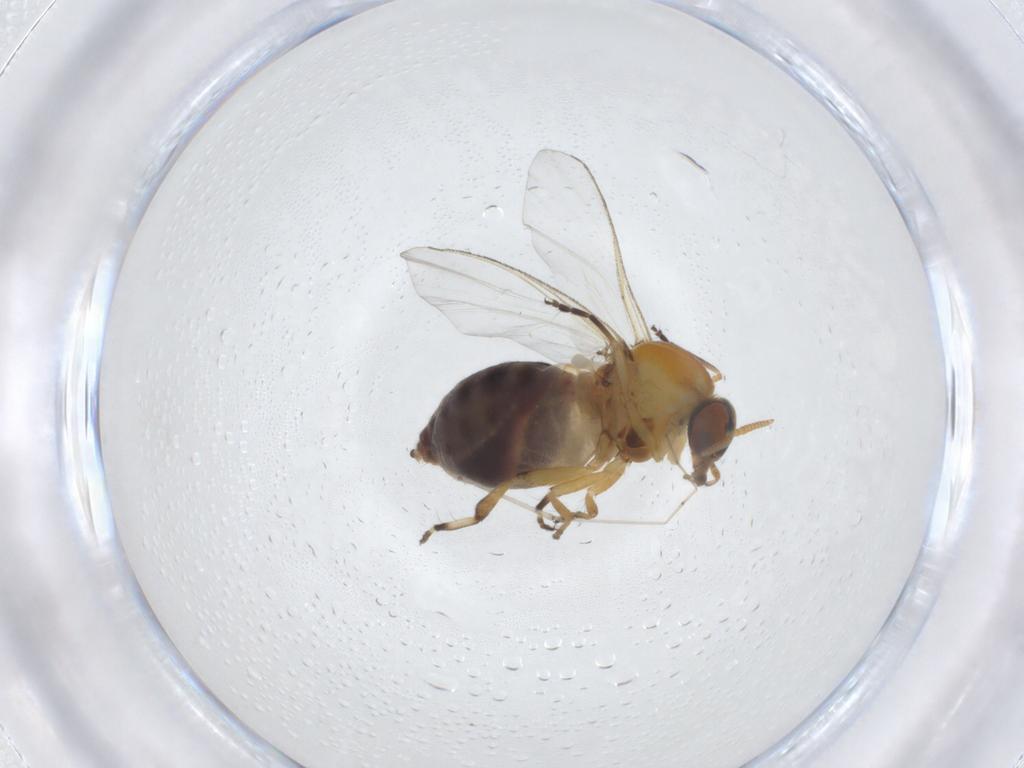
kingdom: Animalia
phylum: Arthropoda
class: Insecta
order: Diptera
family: Simuliidae
